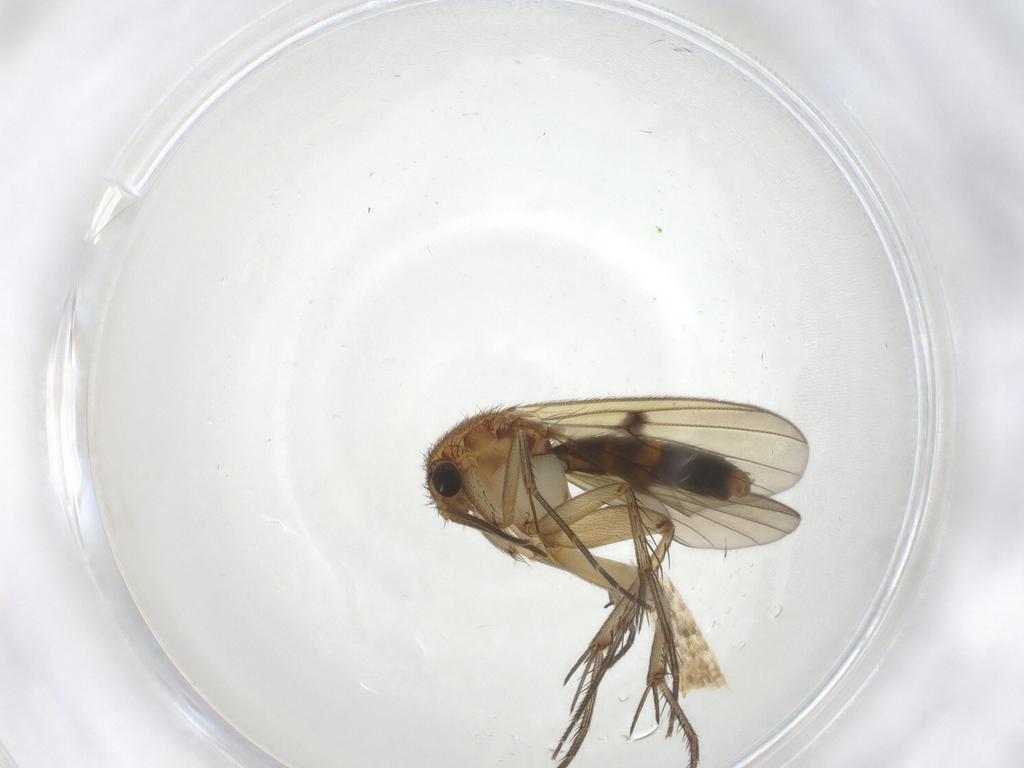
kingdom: Animalia
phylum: Arthropoda
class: Insecta
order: Diptera
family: Mycetophilidae
